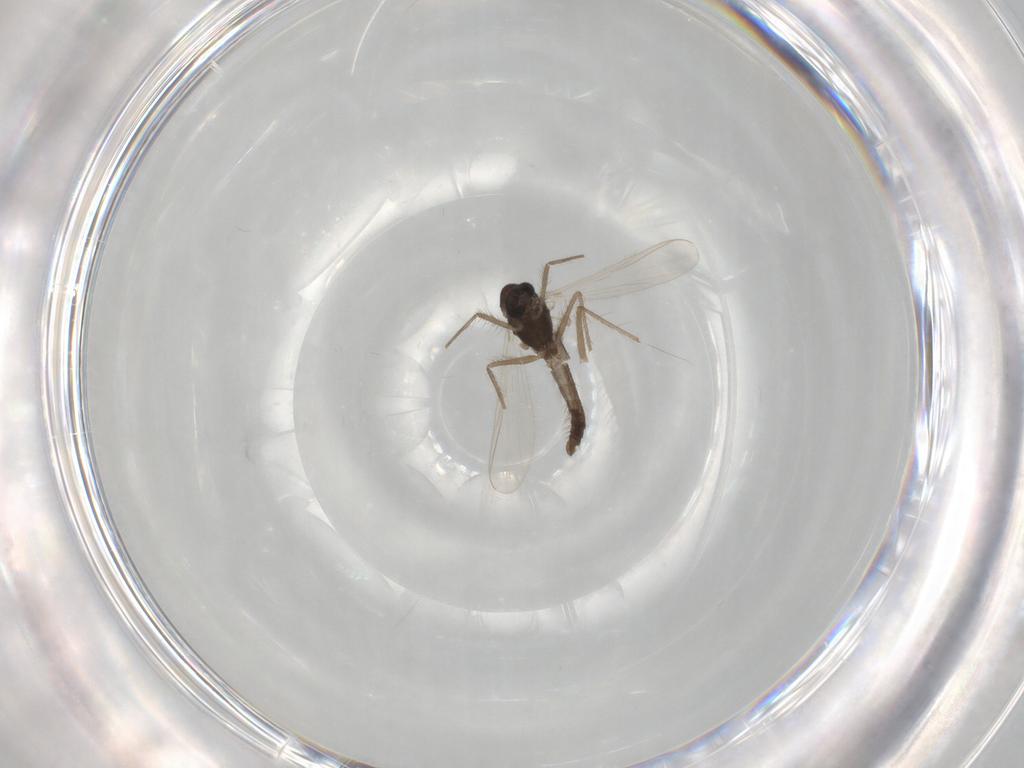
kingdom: Animalia
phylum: Arthropoda
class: Insecta
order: Diptera
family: Chironomidae
